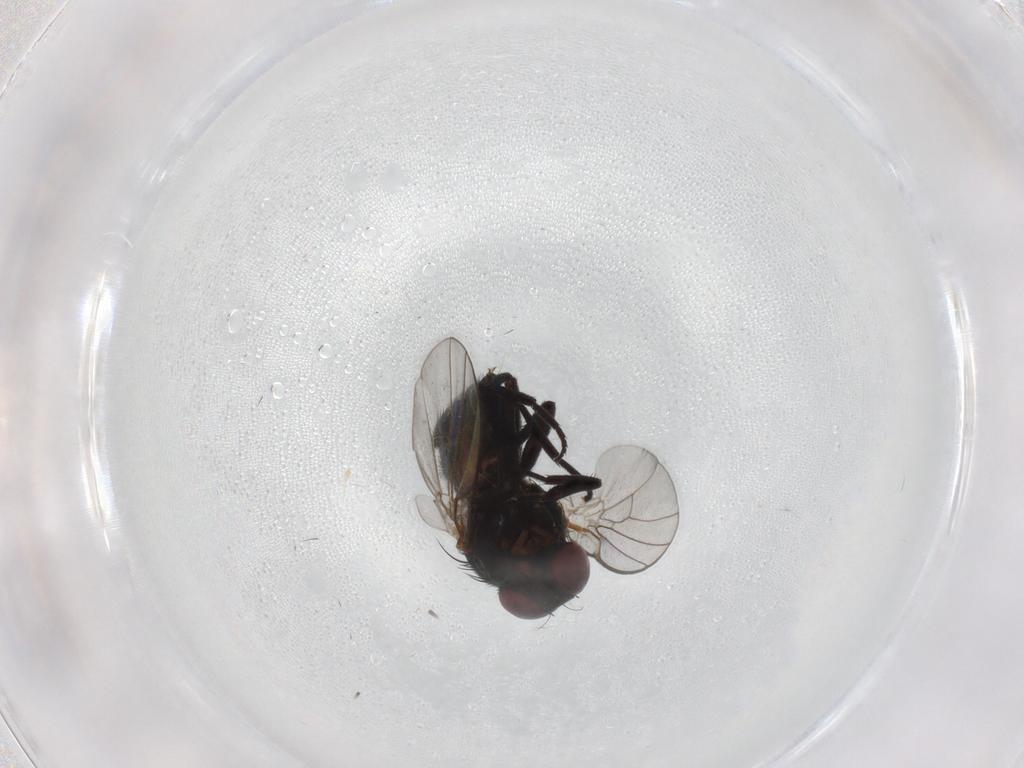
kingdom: Animalia
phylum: Arthropoda
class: Insecta
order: Diptera
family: Agromyzidae
